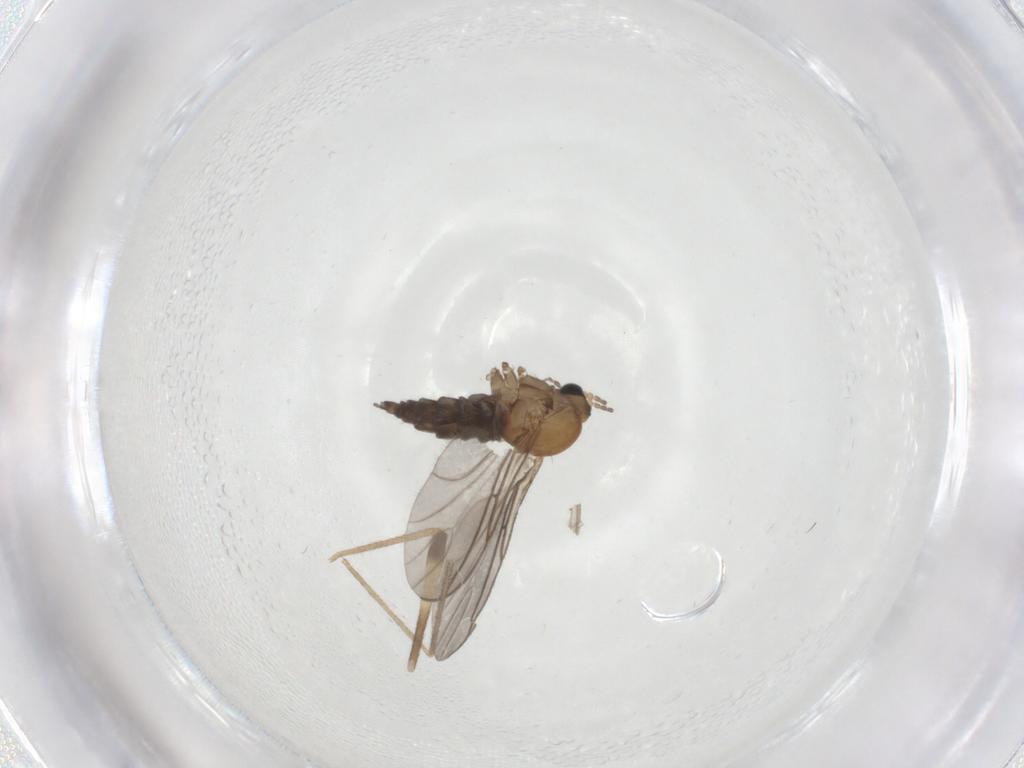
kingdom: Animalia
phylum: Arthropoda
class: Insecta
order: Diptera
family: Sciaridae
